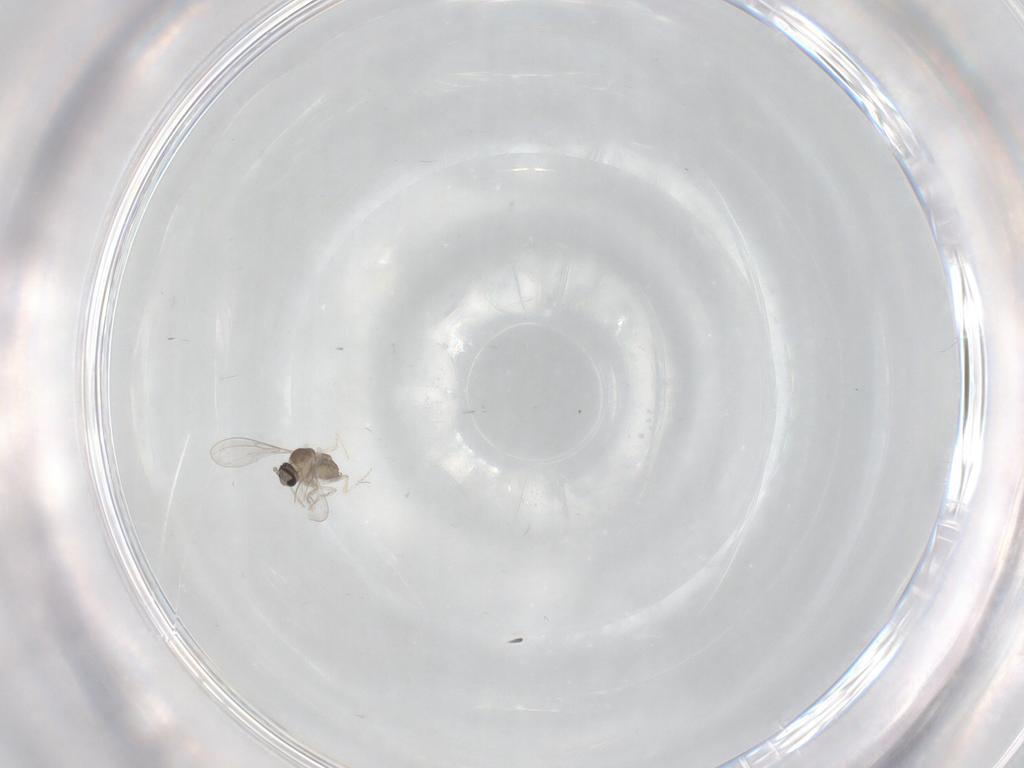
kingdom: Animalia
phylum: Arthropoda
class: Insecta
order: Diptera
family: Cecidomyiidae
